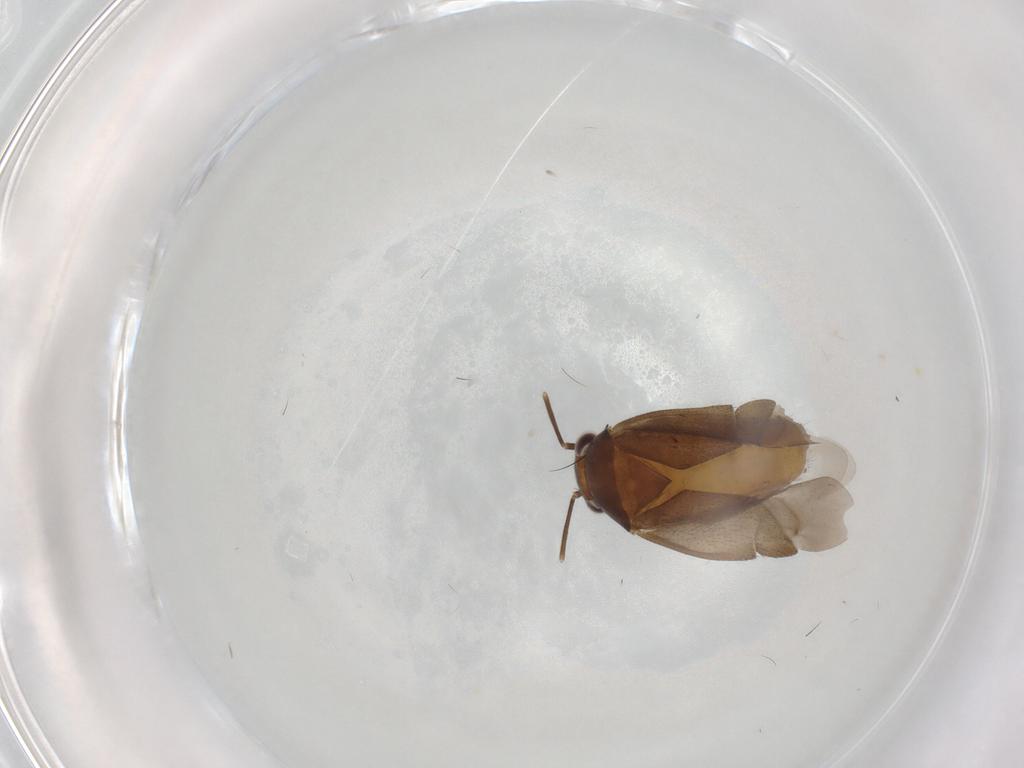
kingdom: Animalia
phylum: Arthropoda
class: Insecta
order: Hemiptera
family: Miridae
